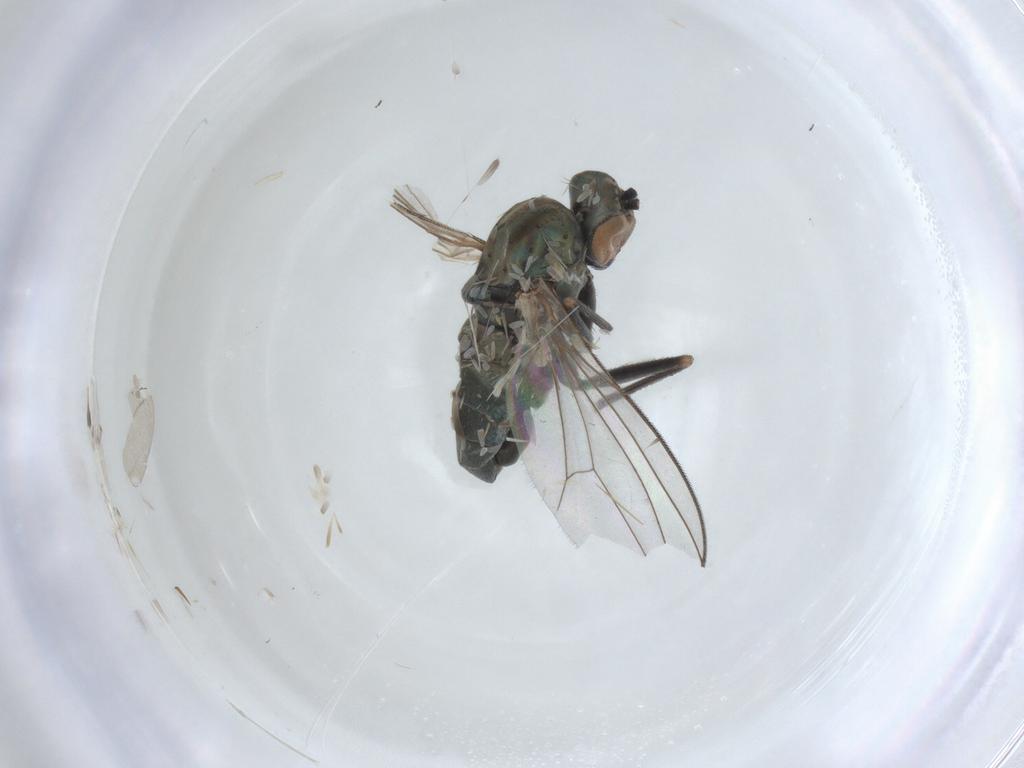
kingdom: Animalia
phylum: Arthropoda
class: Insecta
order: Diptera
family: Dolichopodidae
